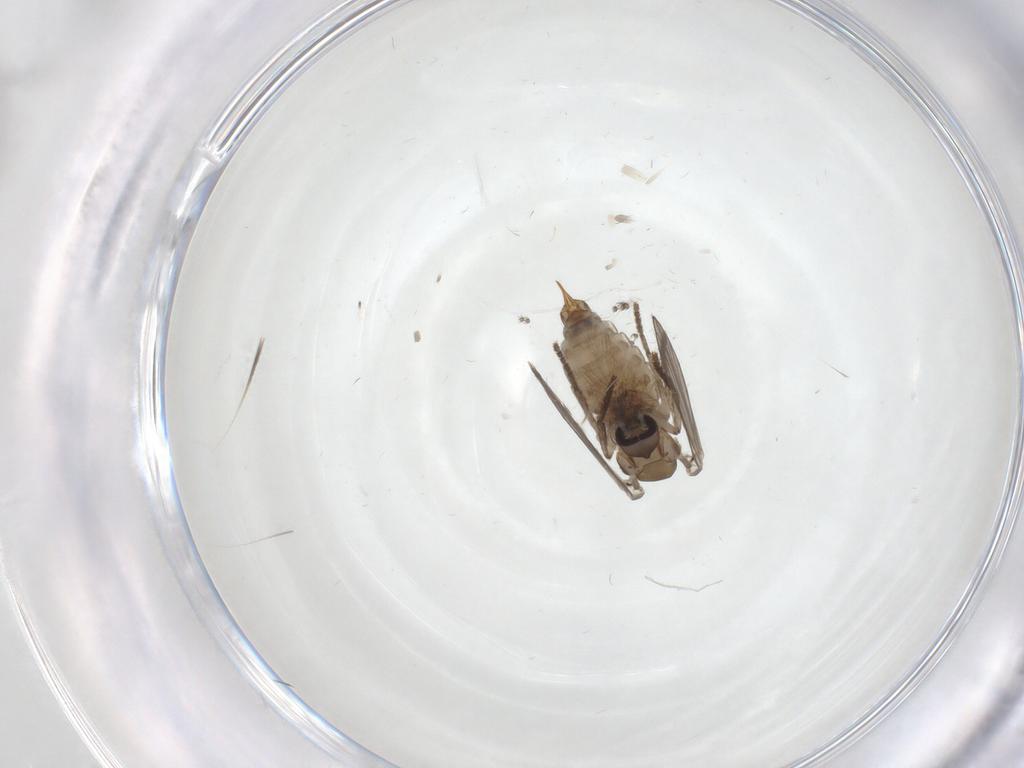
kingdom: Animalia
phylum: Arthropoda
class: Insecta
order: Diptera
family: Psychodidae
